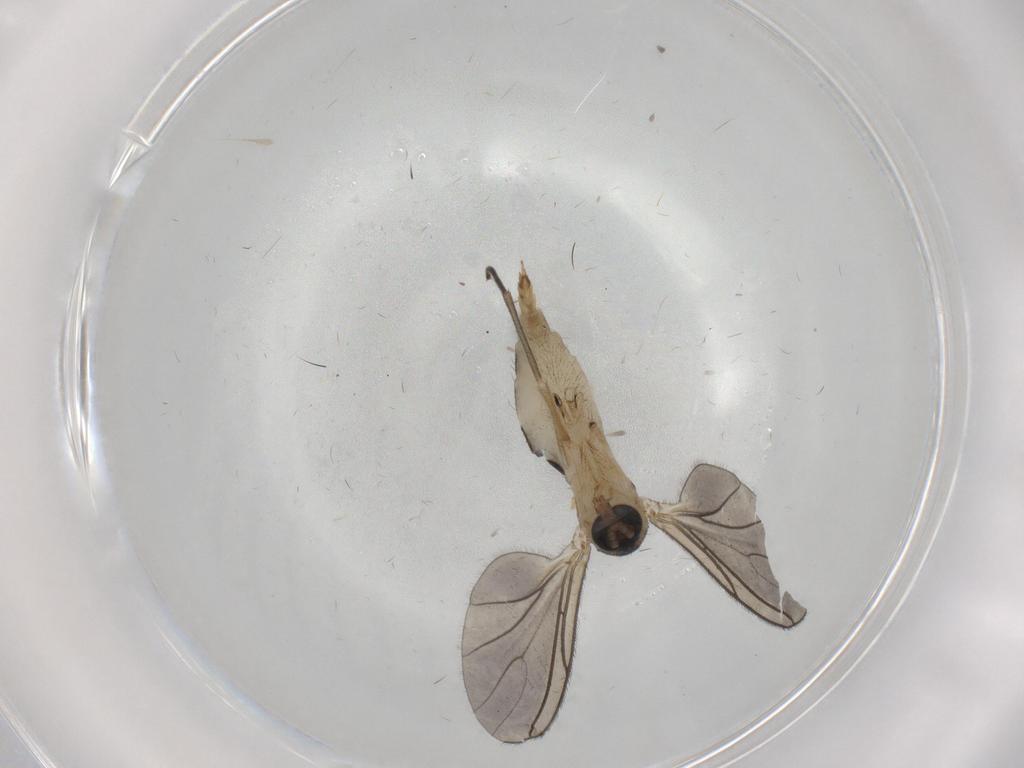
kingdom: Animalia
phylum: Arthropoda
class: Insecta
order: Diptera
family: Sciaridae
